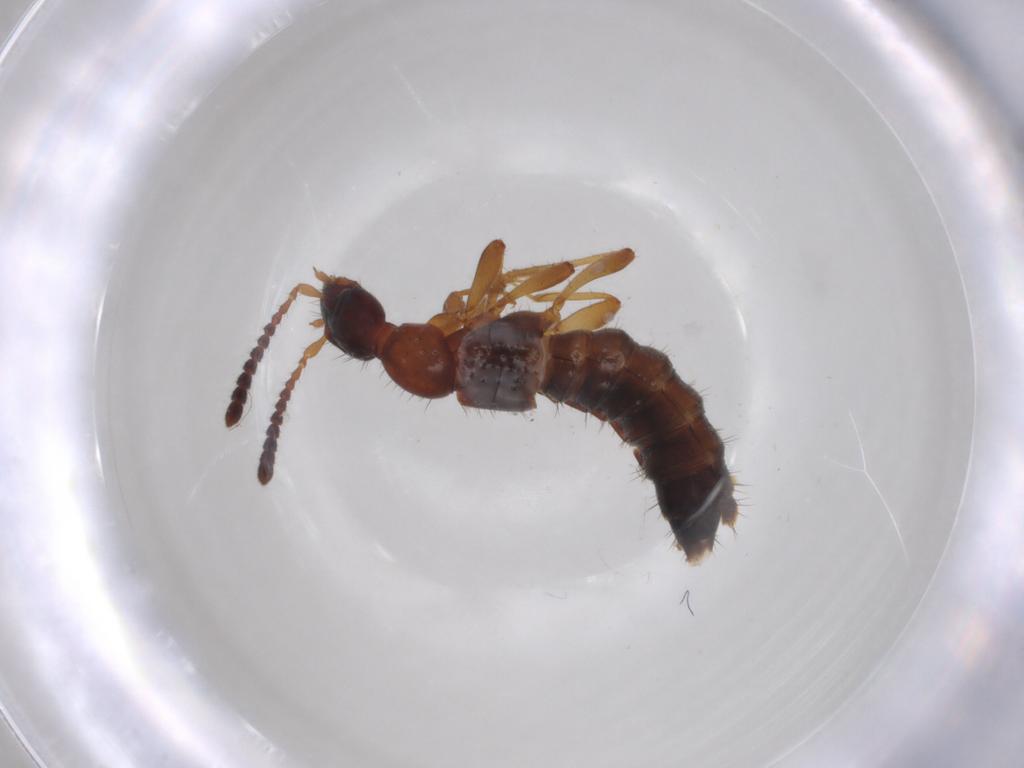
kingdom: Animalia
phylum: Arthropoda
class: Insecta
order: Coleoptera
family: Staphylinidae
